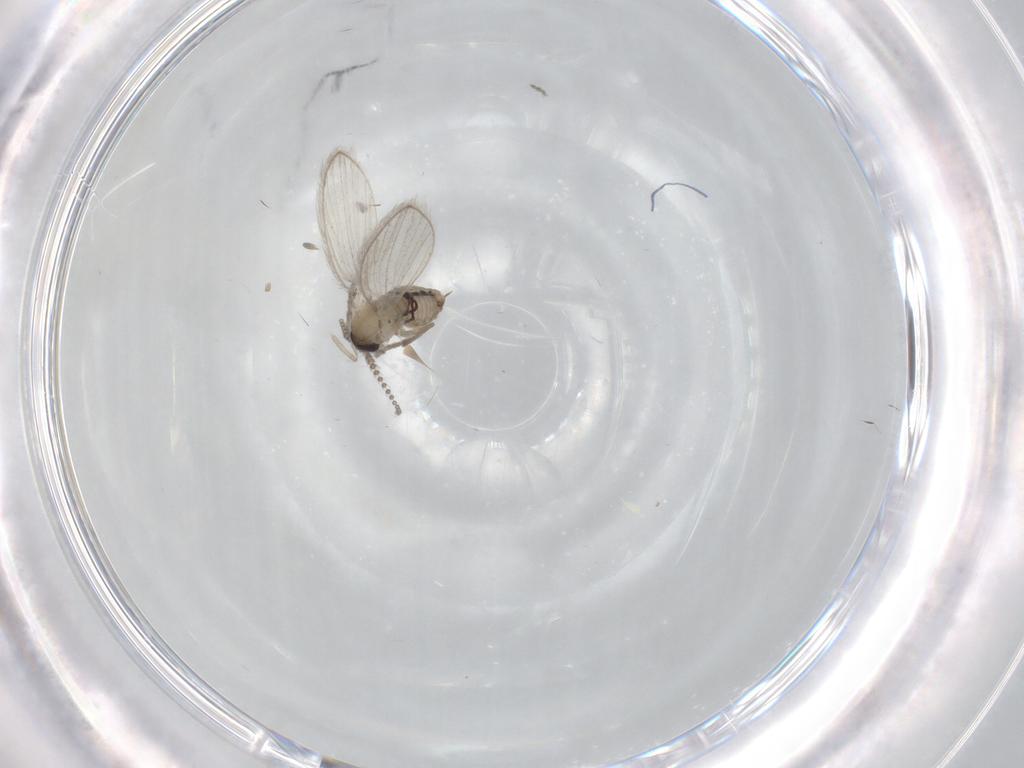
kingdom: Animalia
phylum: Arthropoda
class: Insecta
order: Diptera
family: Psychodidae
